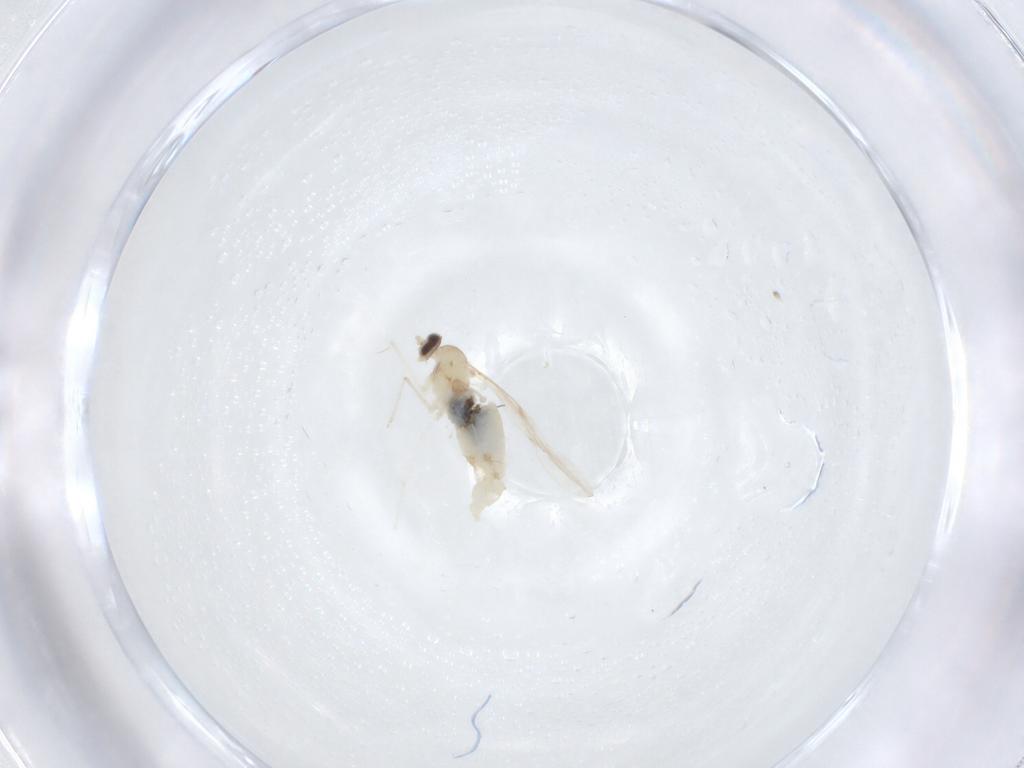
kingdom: Animalia
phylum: Arthropoda
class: Insecta
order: Diptera
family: Cecidomyiidae
